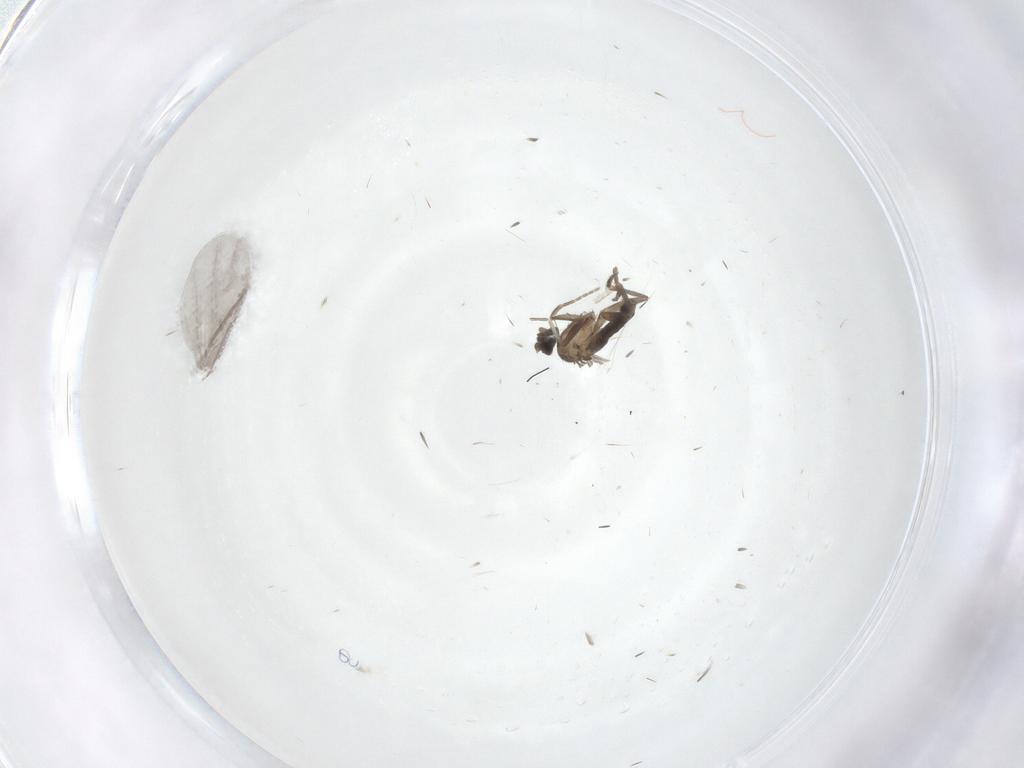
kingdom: Animalia
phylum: Arthropoda
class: Insecta
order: Diptera
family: Phoridae
